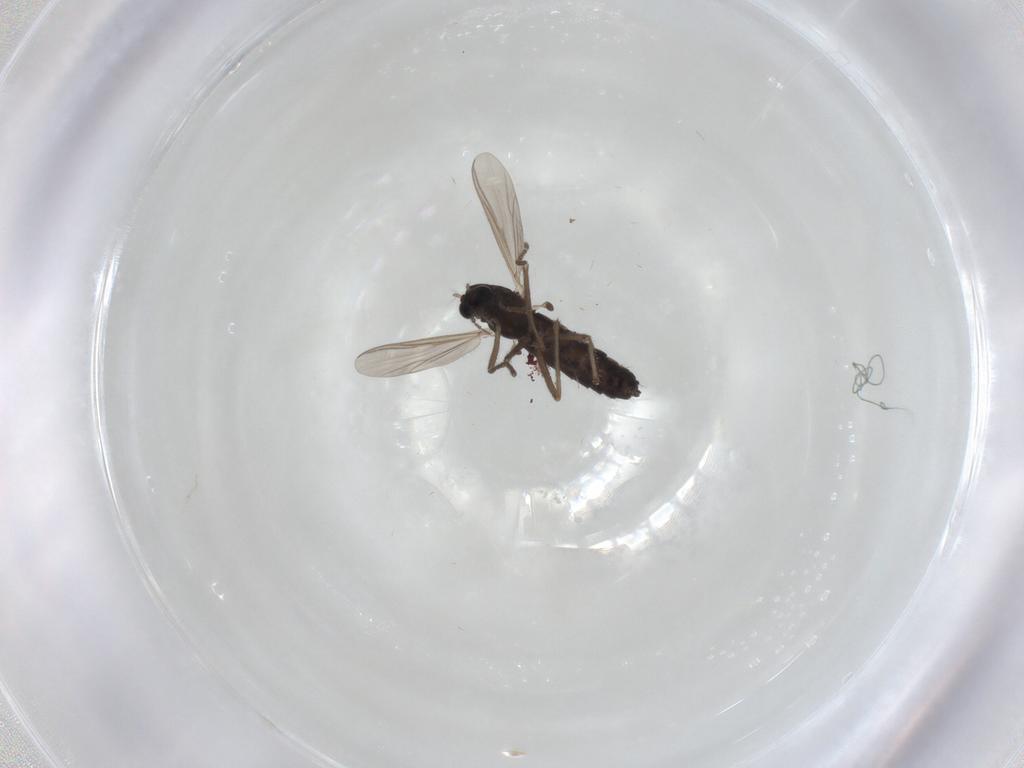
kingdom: Animalia
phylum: Arthropoda
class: Insecta
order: Diptera
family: Chironomidae
